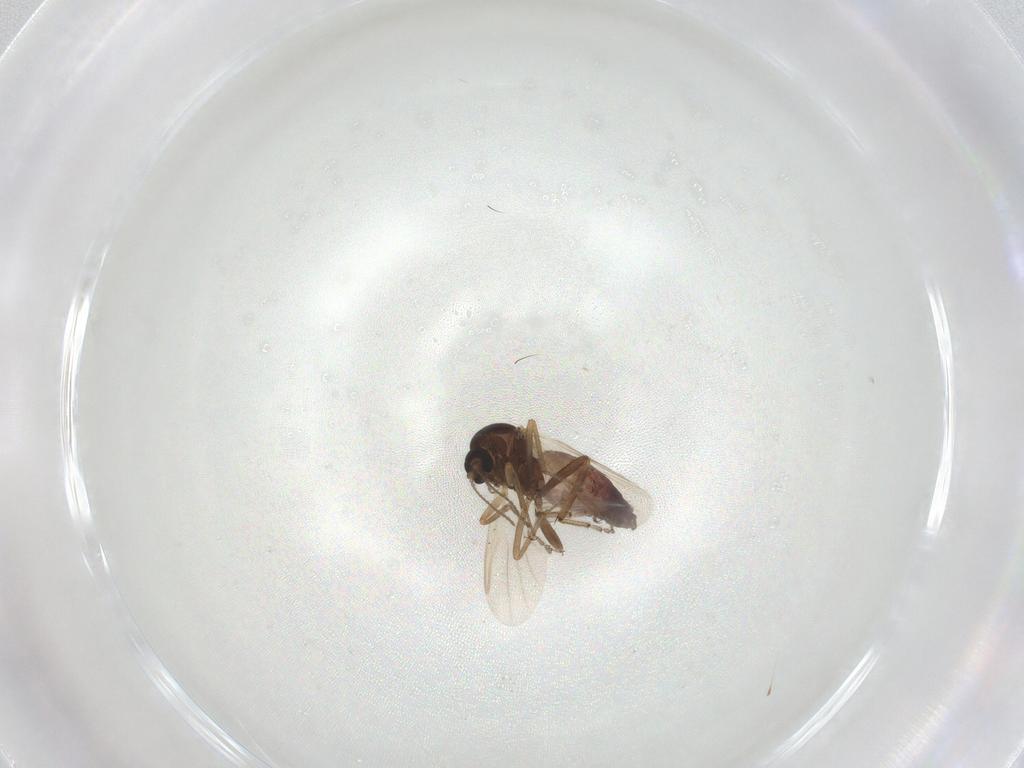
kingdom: Animalia
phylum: Arthropoda
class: Insecta
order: Diptera
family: Ceratopogonidae
